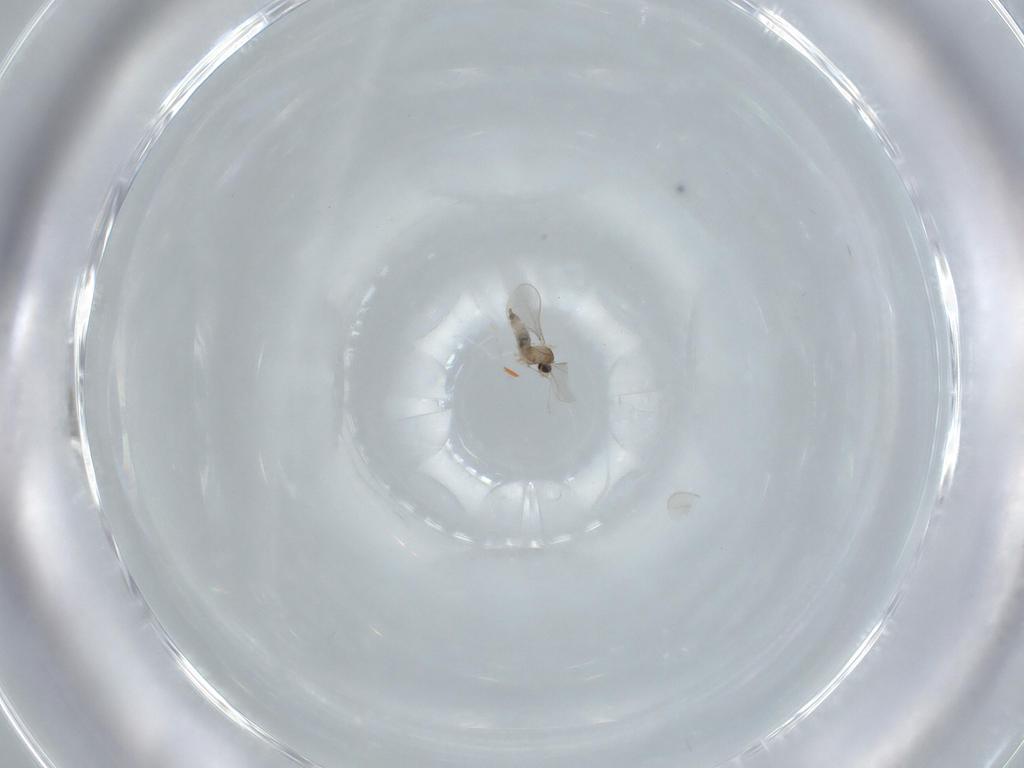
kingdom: Animalia
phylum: Arthropoda
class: Insecta
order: Diptera
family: Cecidomyiidae
